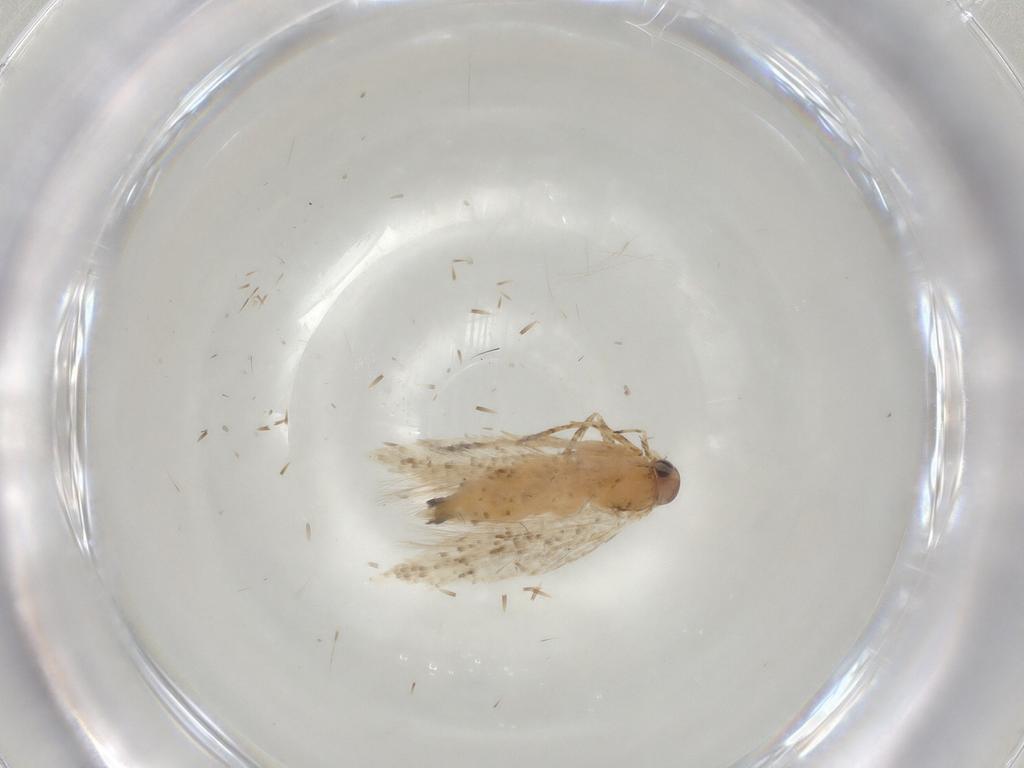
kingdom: Animalia
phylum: Arthropoda
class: Insecta
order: Lepidoptera
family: Gelechiidae
